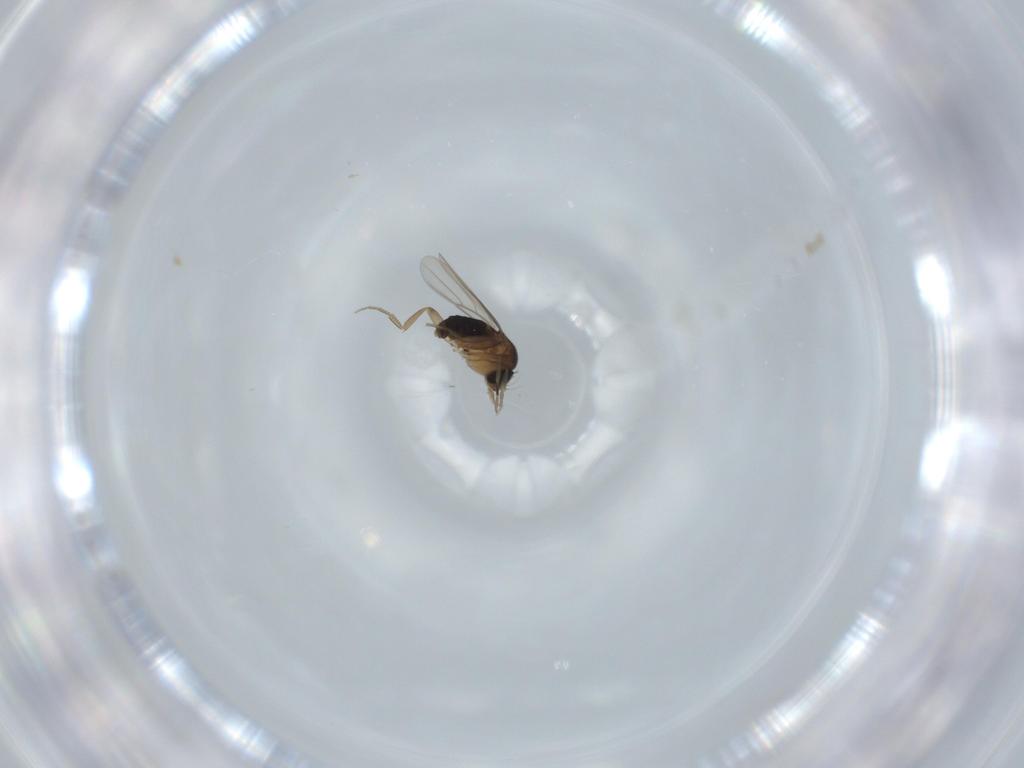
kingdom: Animalia
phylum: Arthropoda
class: Insecta
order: Diptera
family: Phoridae
